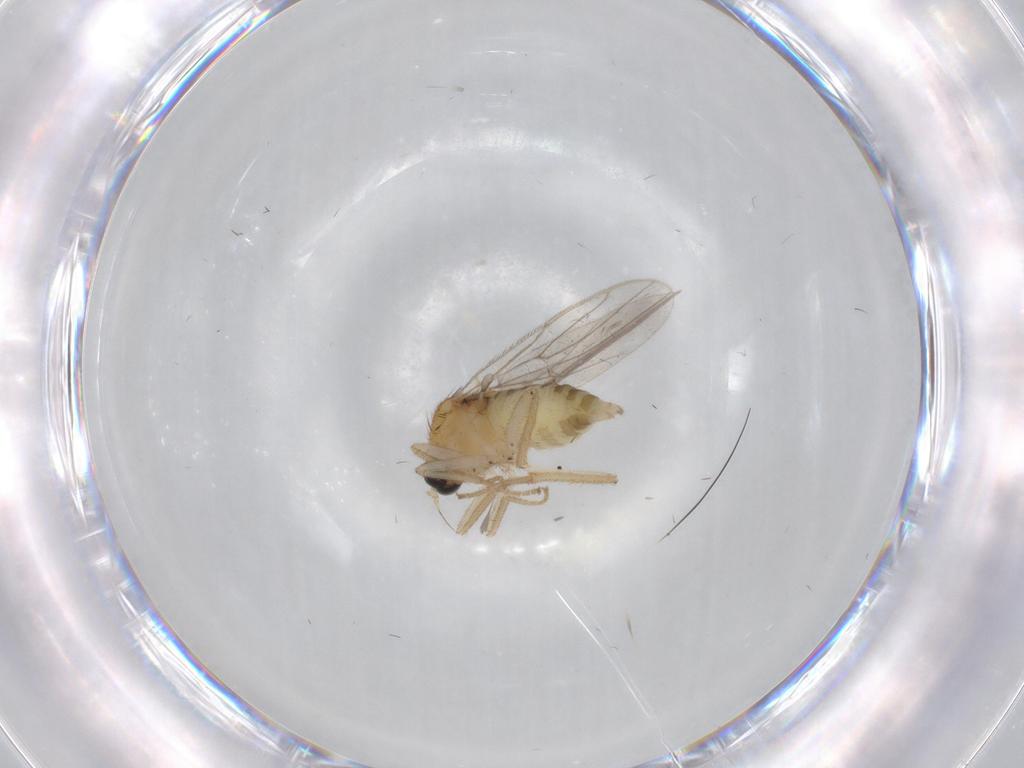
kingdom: Animalia
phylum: Arthropoda
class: Insecta
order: Diptera
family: Hybotidae
